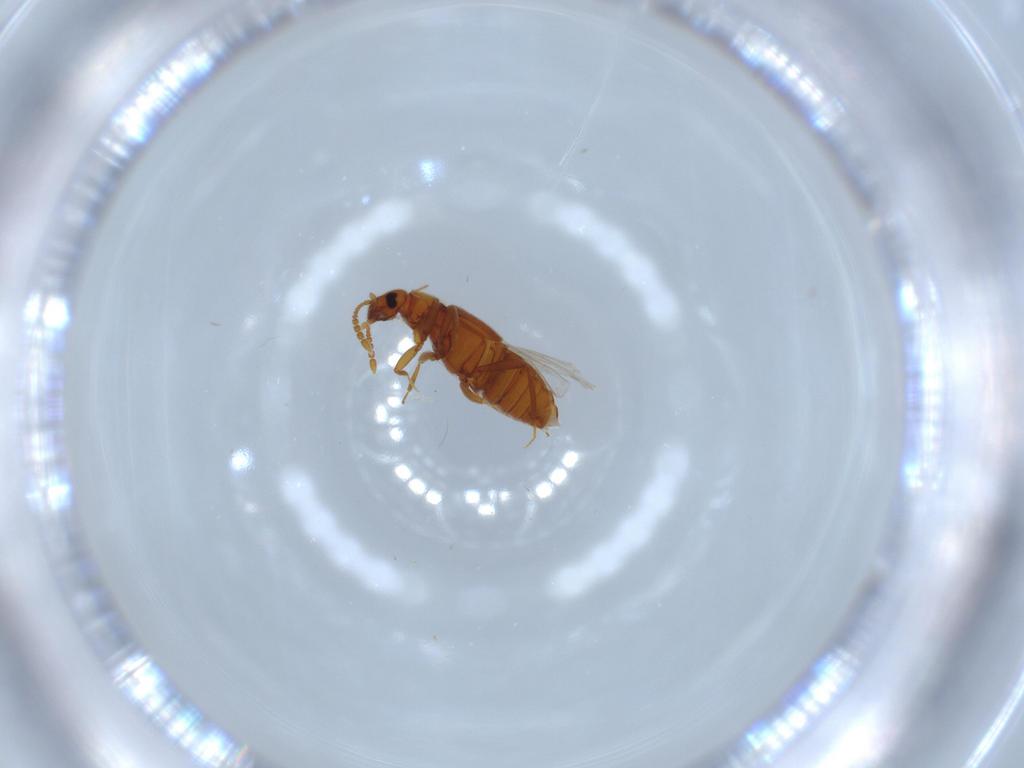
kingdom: Animalia
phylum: Arthropoda
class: Insecta
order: Coleoptera
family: Staphylinidae
